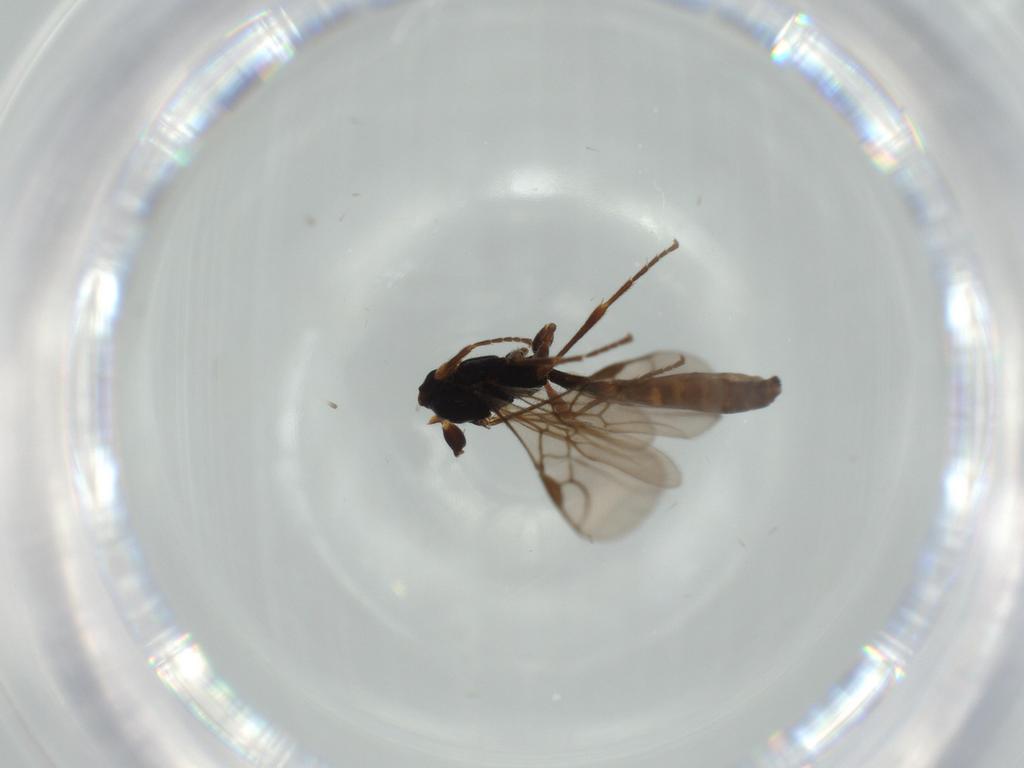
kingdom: Animalia
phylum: Arthropoda
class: Insecta
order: Hymenoptera
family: Braconidae
